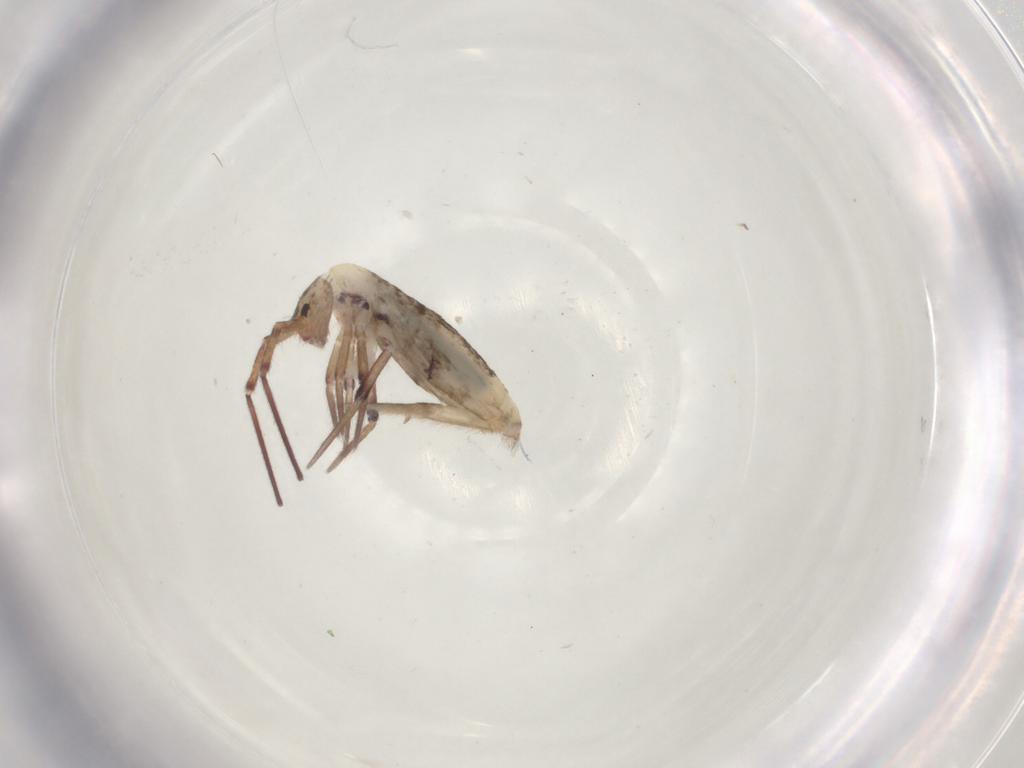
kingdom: Animalia
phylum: Arthropoda
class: Collembola
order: Entomobryomorpha
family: Entomobryidae
